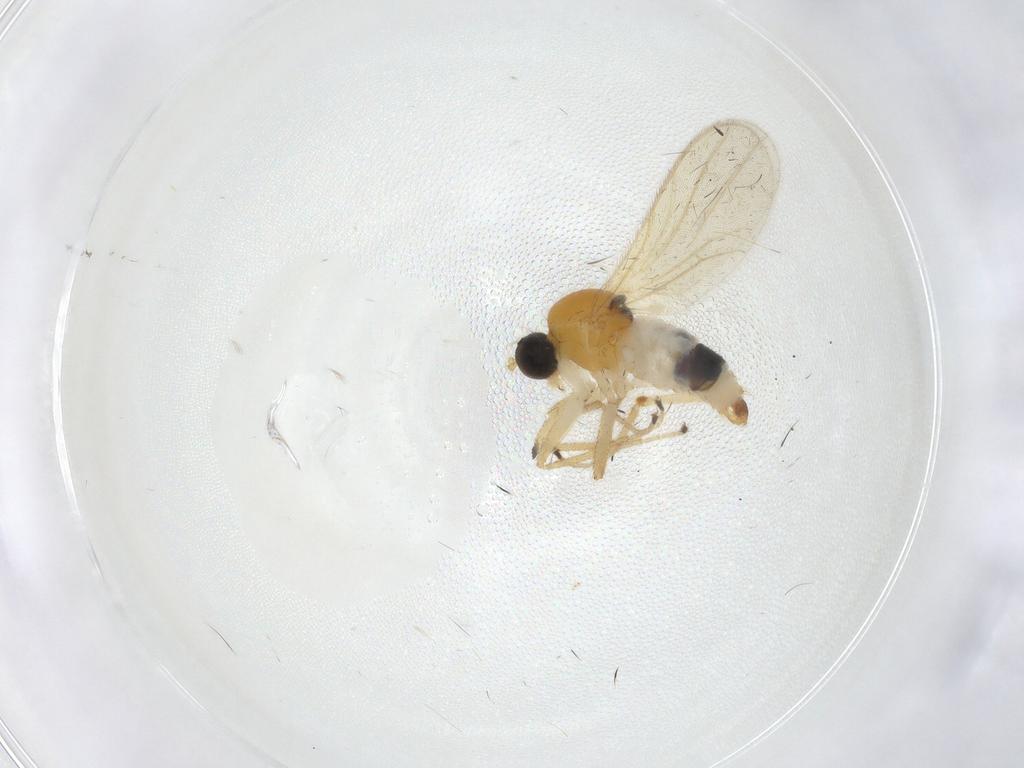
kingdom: Animalia
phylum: Arthropoda
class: Insecta
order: Diptera
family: Drosophilidae
